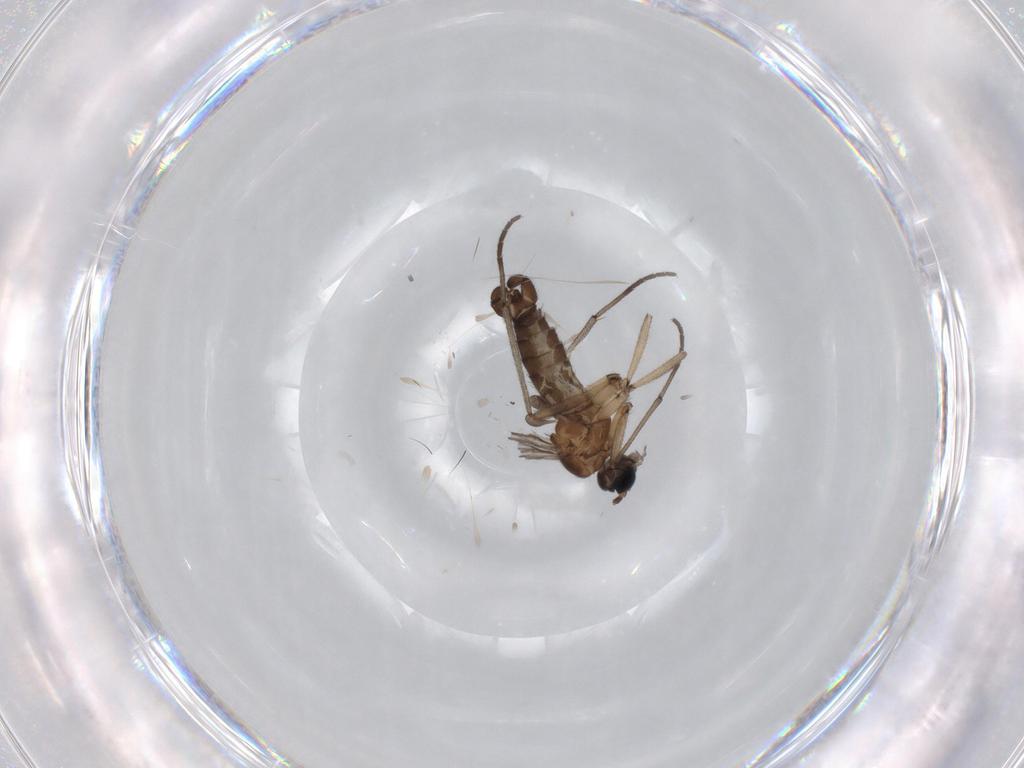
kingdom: Animalia
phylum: Arthropoda
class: Insecta
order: Diptera
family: Sciaridae
